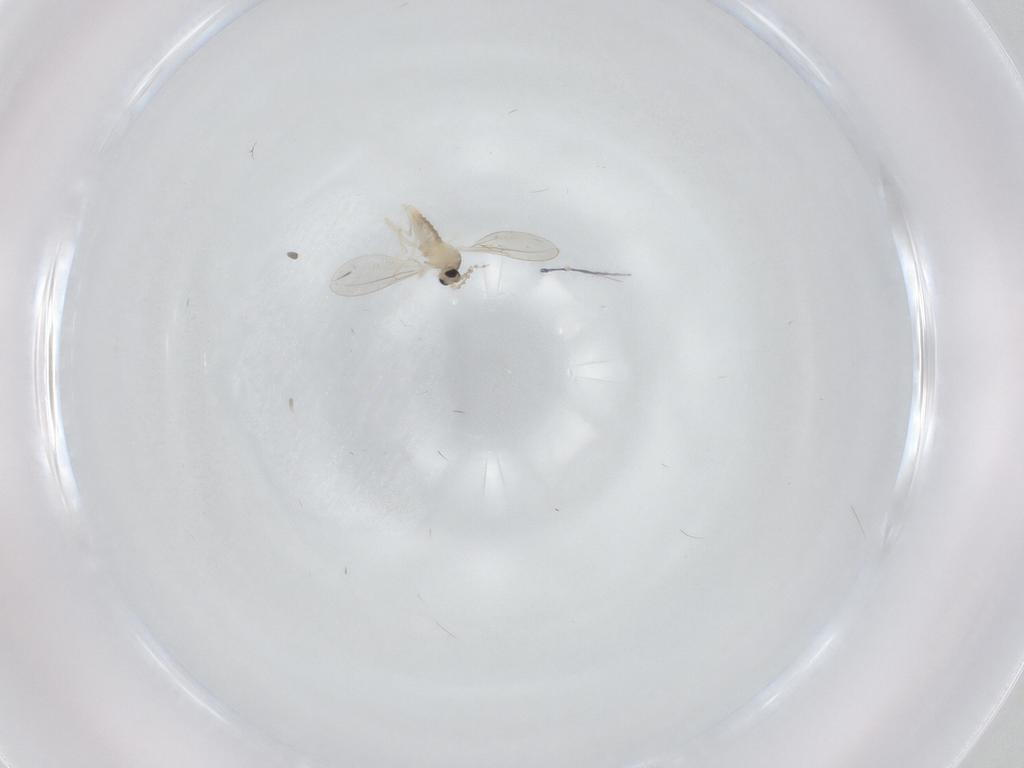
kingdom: Animalia
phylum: Arthropoda
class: Insecta
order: Diptera
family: Cecidomyiidae
